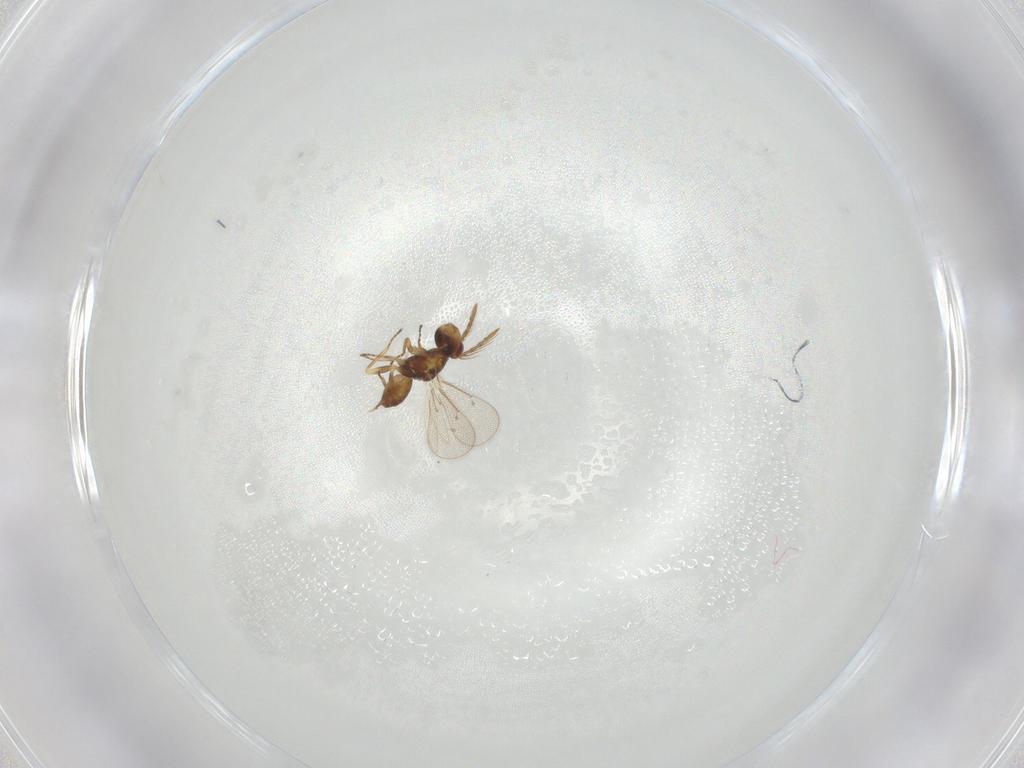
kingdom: Animalia
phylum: Arthropoda
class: Insecta
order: Hymenoptera
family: Eulophidae
